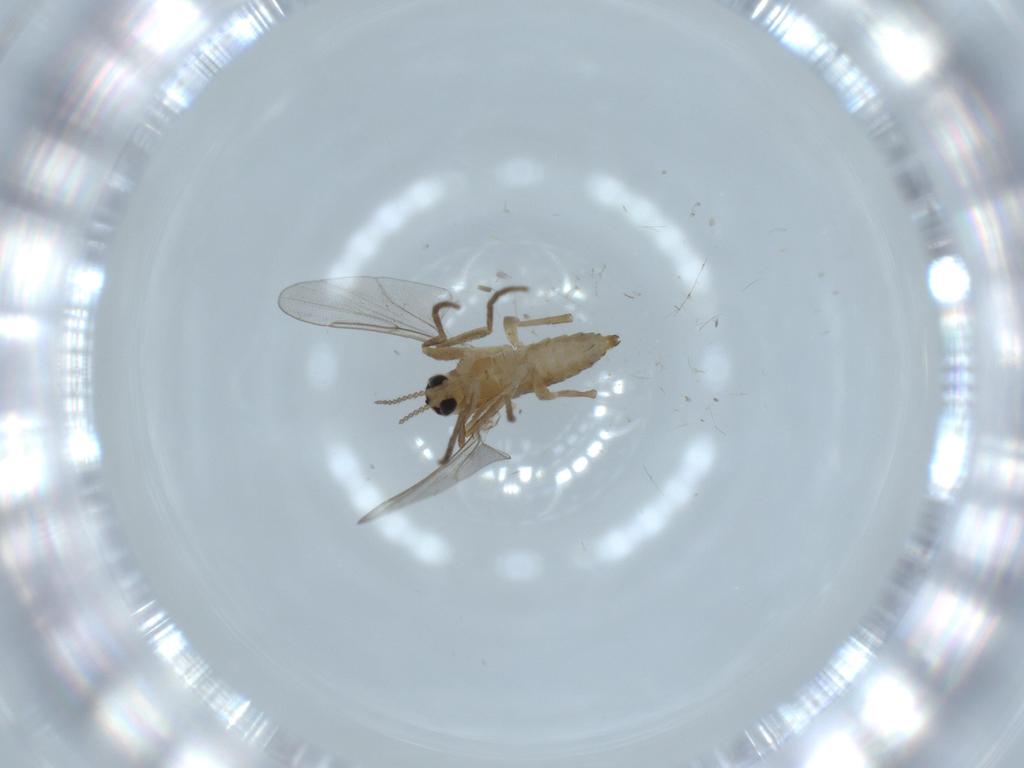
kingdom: Animalia
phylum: Arthropoda
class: Insecta
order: Diptera
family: Cecidomyiidae
